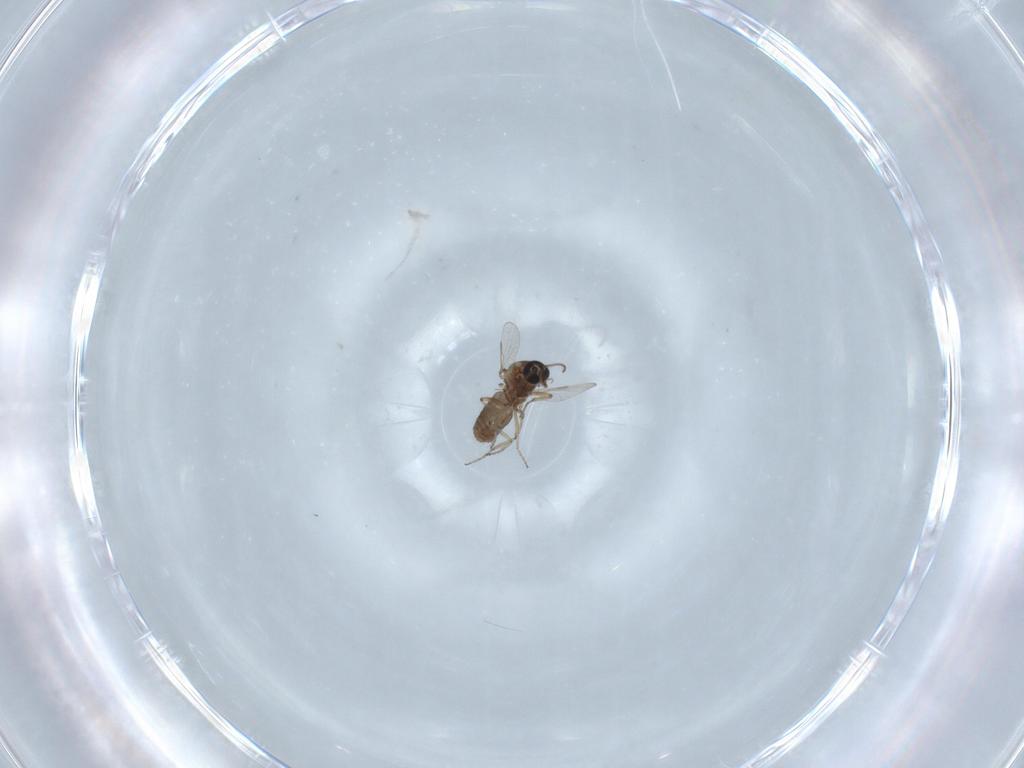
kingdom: Animalia
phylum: Arthropoda
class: Insecta
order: Diptera
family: Ceratopogonidae
